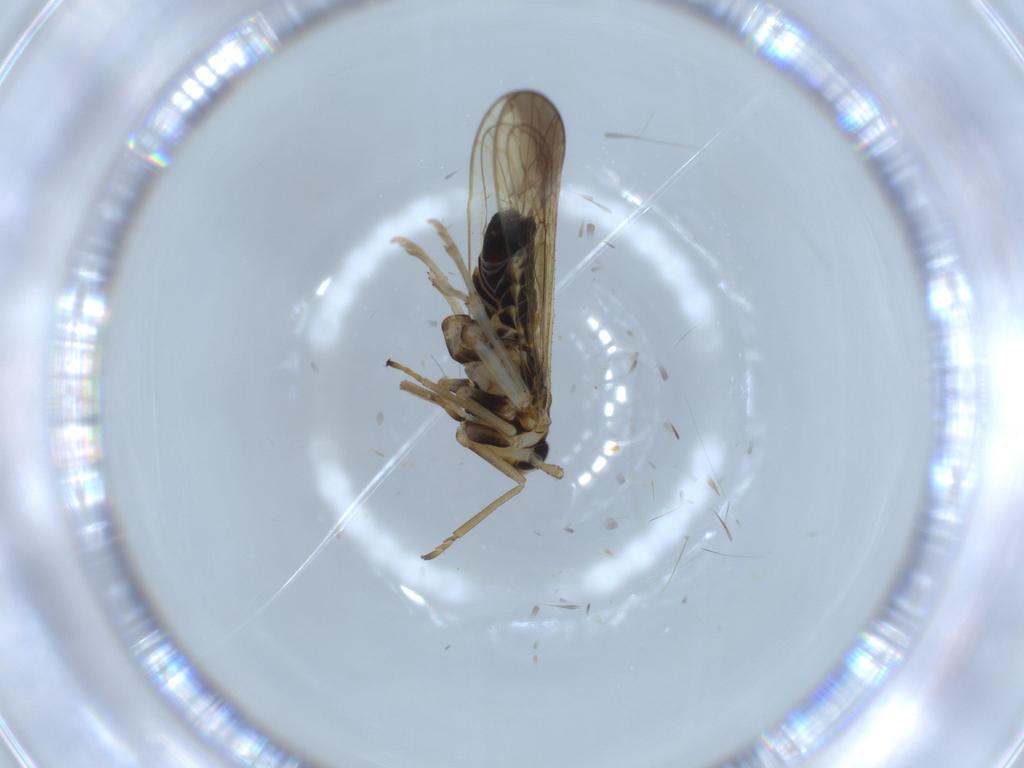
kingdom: Animalia
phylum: Arthropoda
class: Insecta
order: Hemiptera
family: Delphacidae
